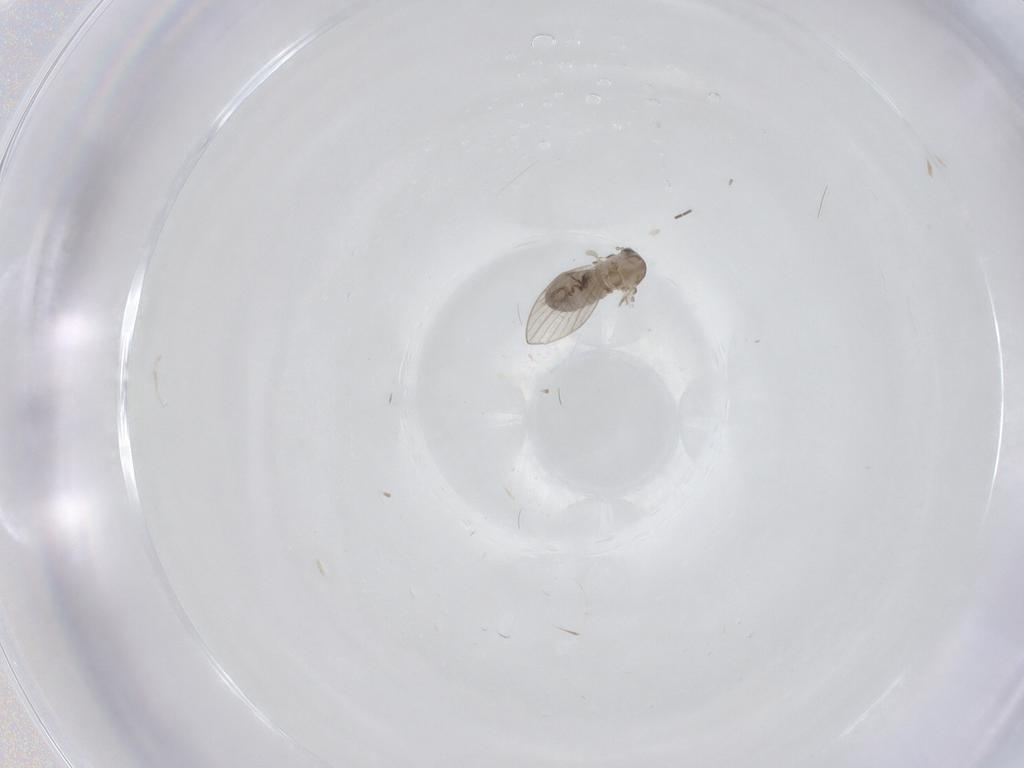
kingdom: Animalia
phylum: Arthropoda
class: Insecta
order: Diptera
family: Psychodidae
